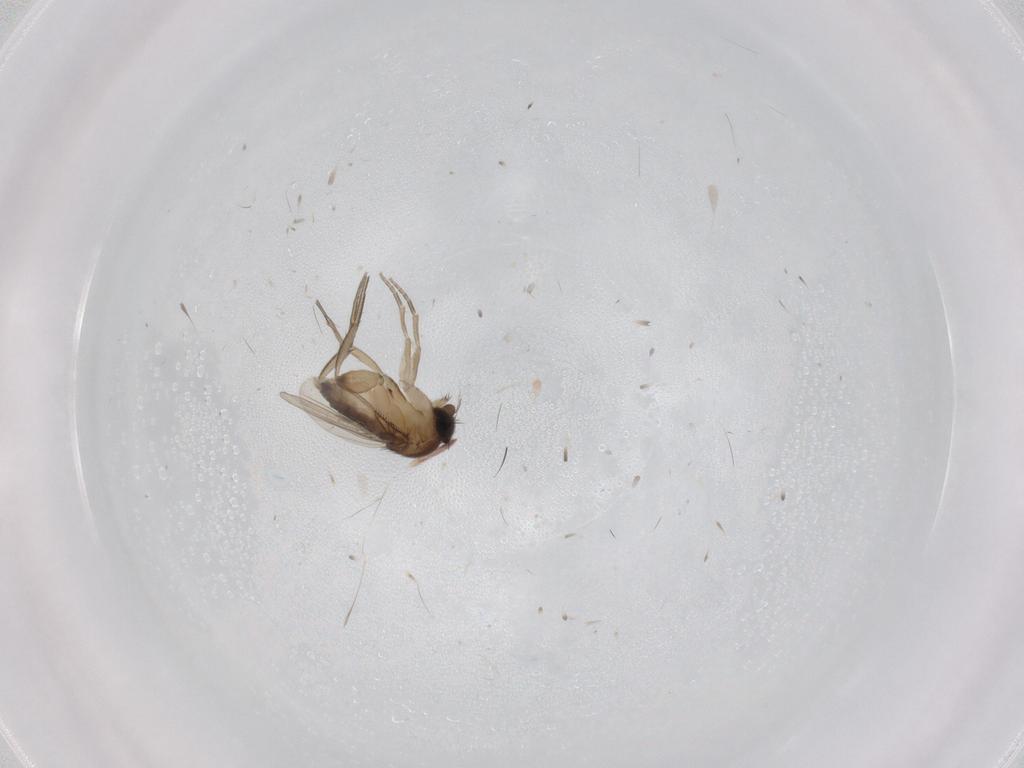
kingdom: Animalia
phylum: Arthropoda
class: Insecta
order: Diptera
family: Phoridae
